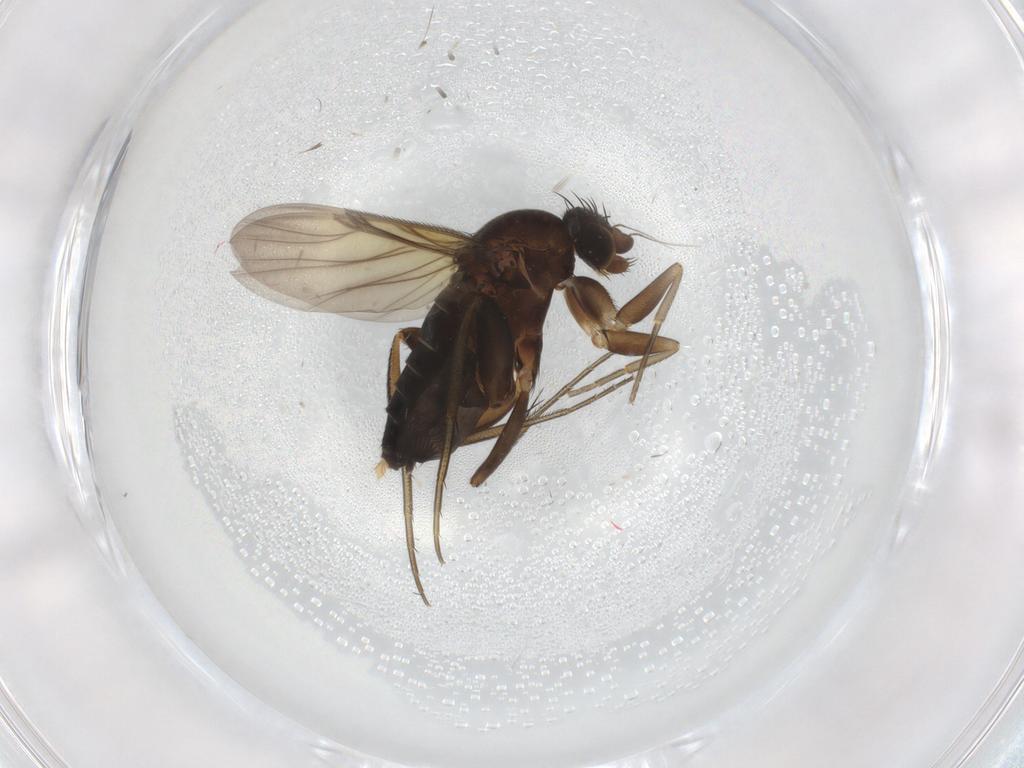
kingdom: Animalia
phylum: Arthropoda
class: Insecta
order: Diptera
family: Phoridae
